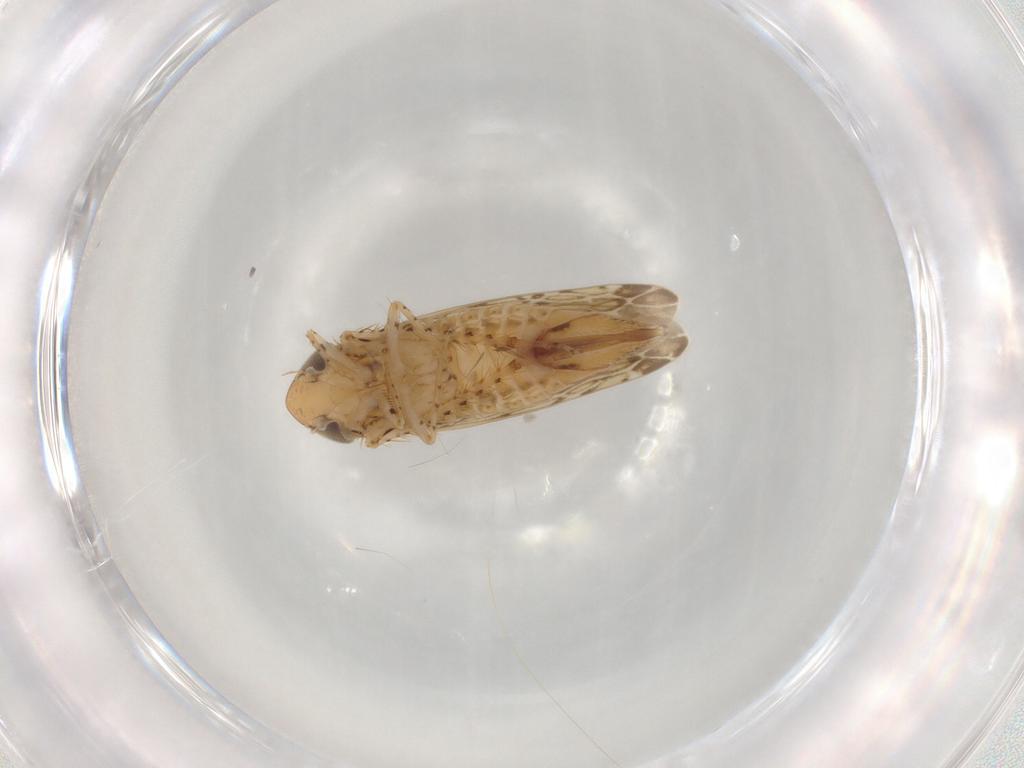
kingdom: Animalia
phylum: Arthropoda
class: Insecta
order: Hemiptera
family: Cicadellidae
